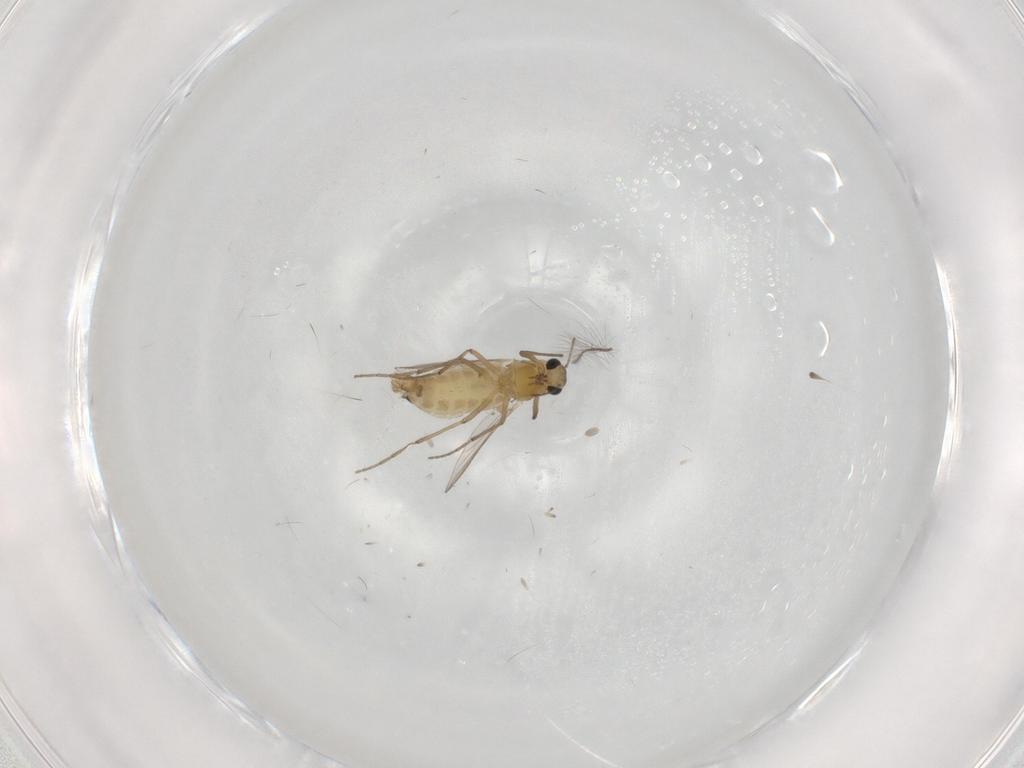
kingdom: Animalia
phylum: Arthropoda
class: Insecta
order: Diptera
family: Chironomidae
